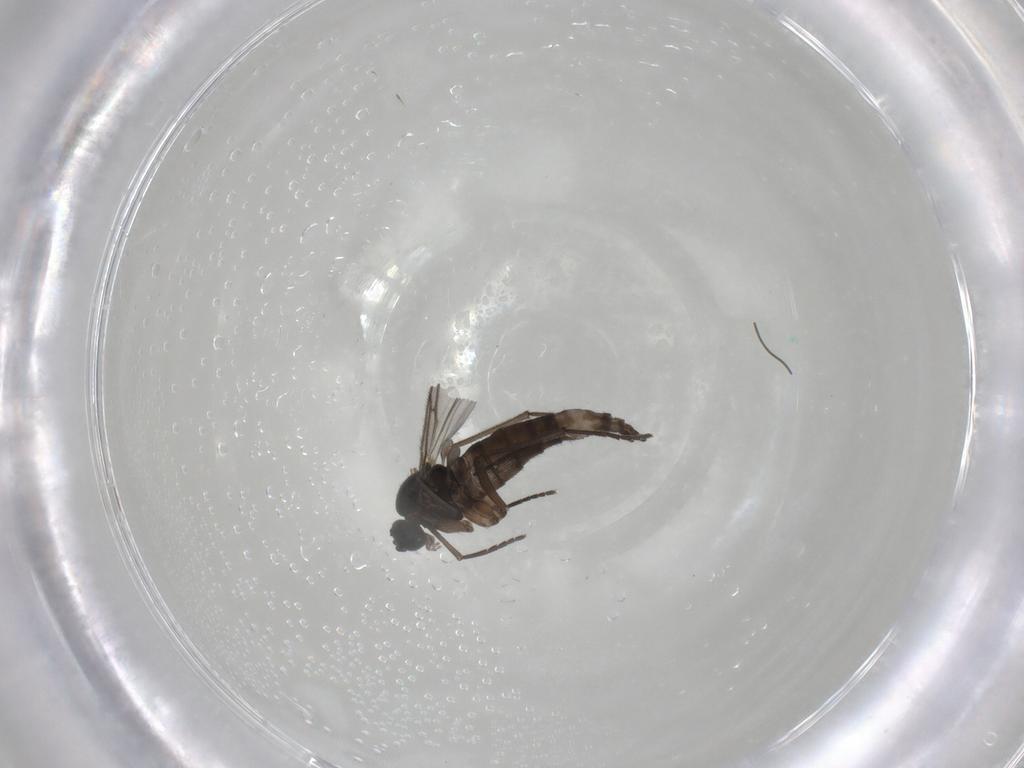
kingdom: Animalia
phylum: Arthropoda
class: Insecta
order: Diptera
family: Sciaridae
